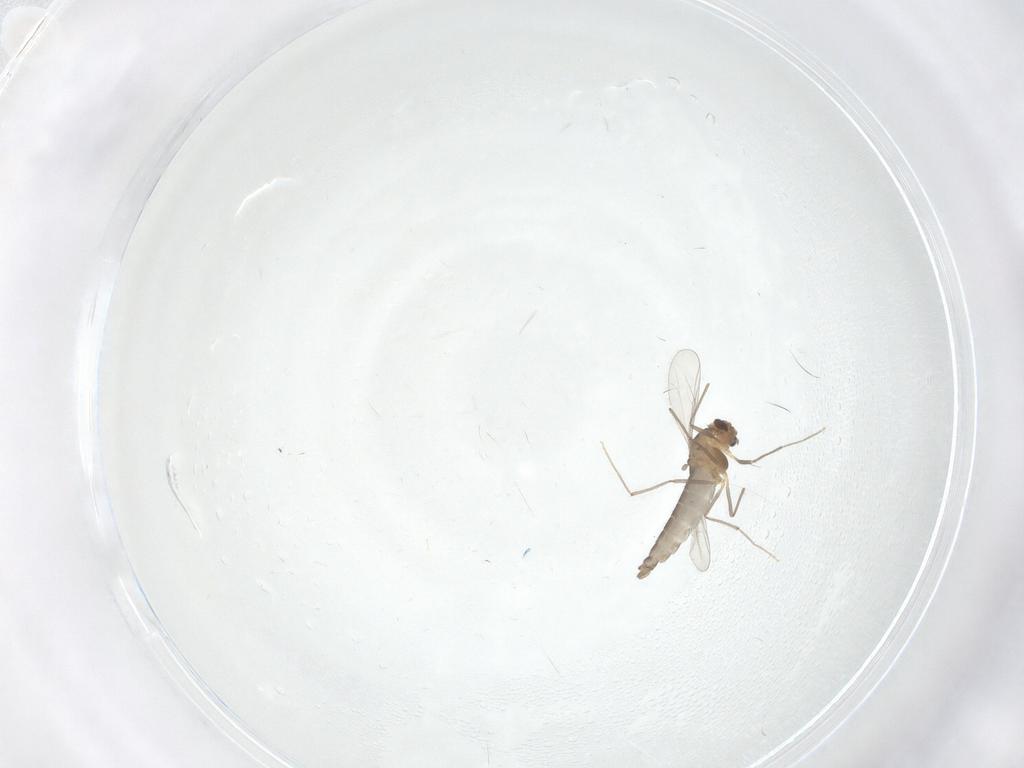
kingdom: Animalia
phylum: Arthropoda
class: Insecta
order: Diptera
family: Chironomidae
